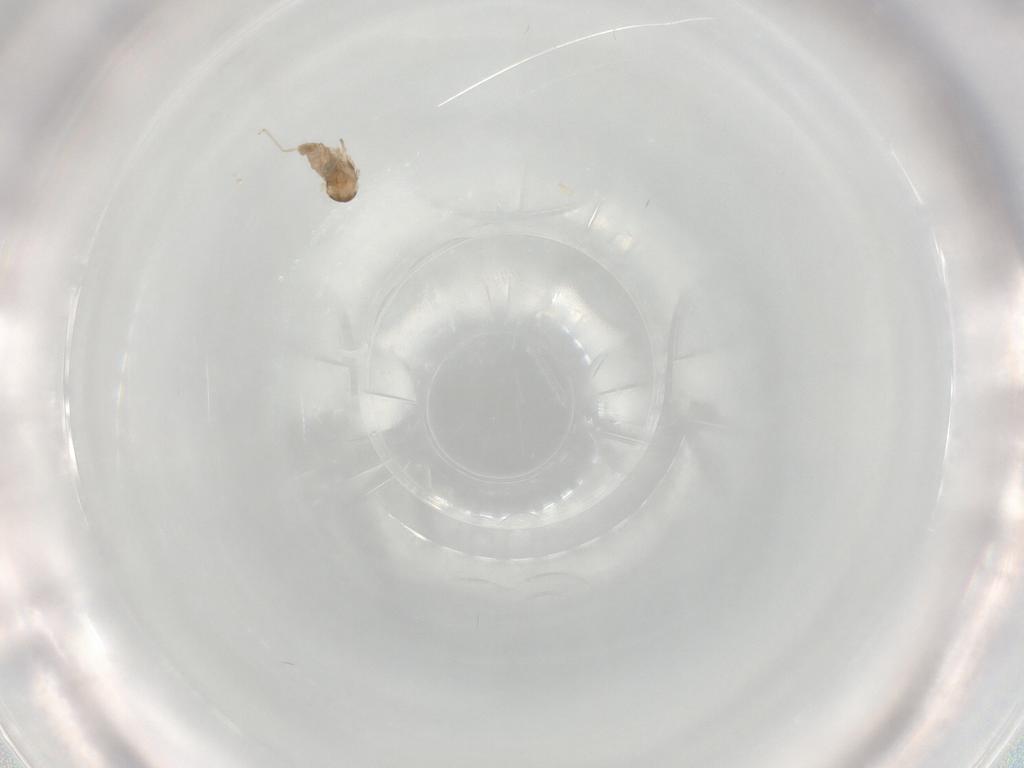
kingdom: Animalia
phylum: Arthropoda
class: Insecta
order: Diptera
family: Cecidomyiidae
